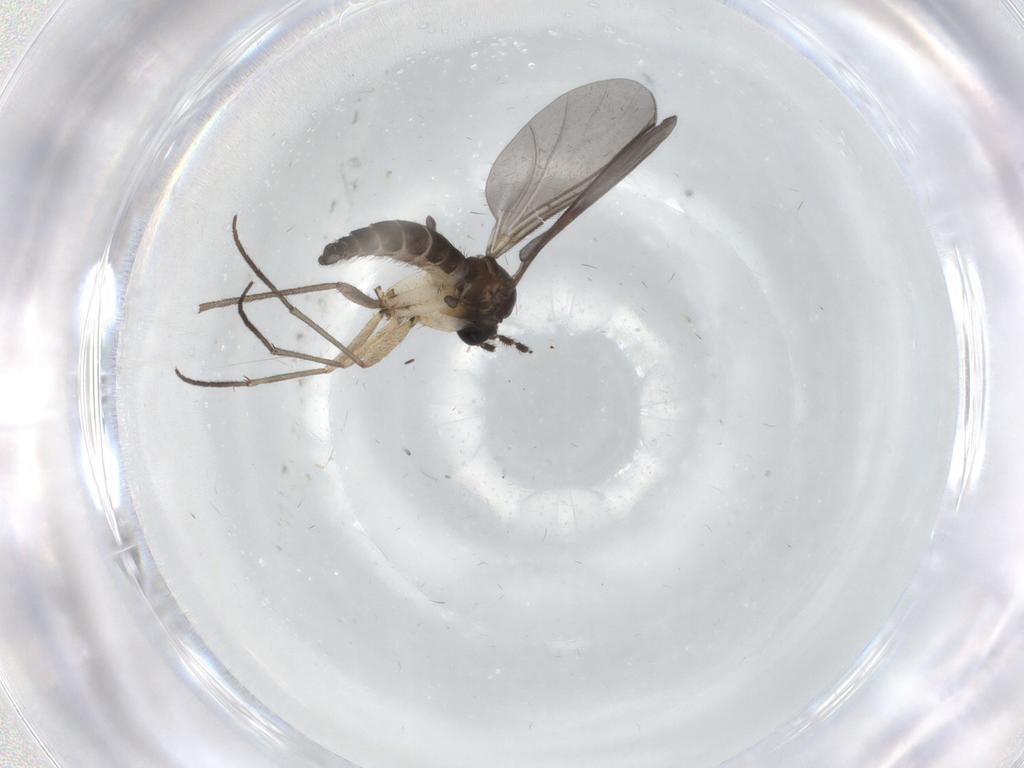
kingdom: Animalia
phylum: Arthropoda
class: Insecta
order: Diptera
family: Sciaridae
